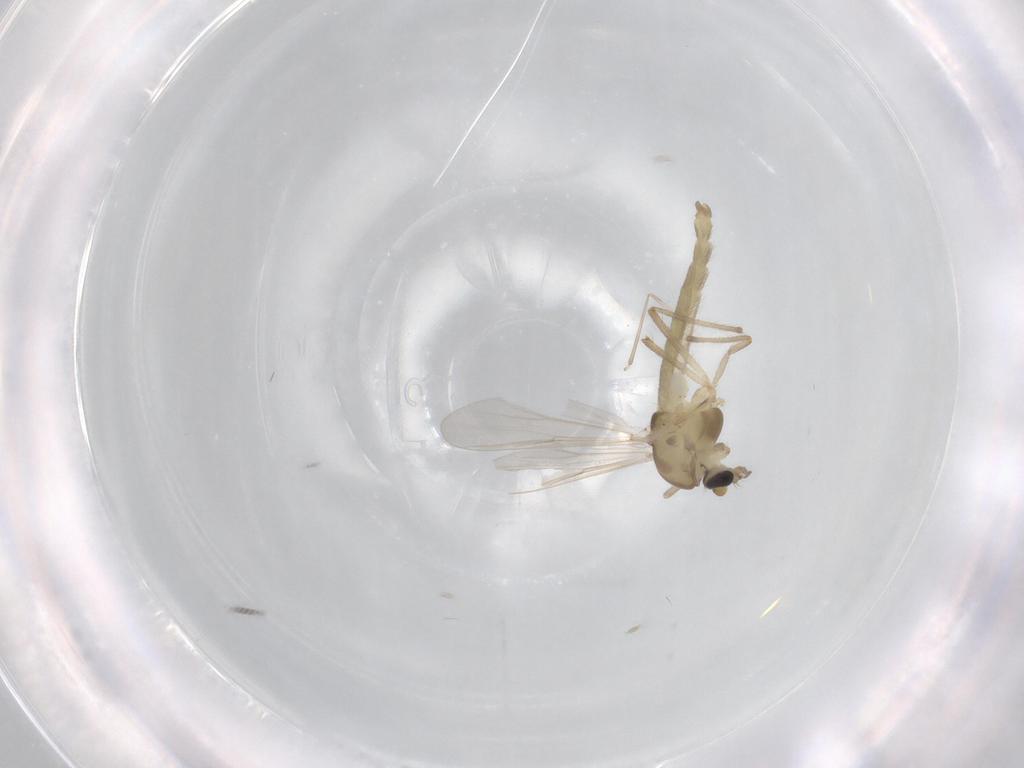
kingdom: Animalia
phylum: Arthropoda
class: Insecta
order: Diptera
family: Chironomidae
